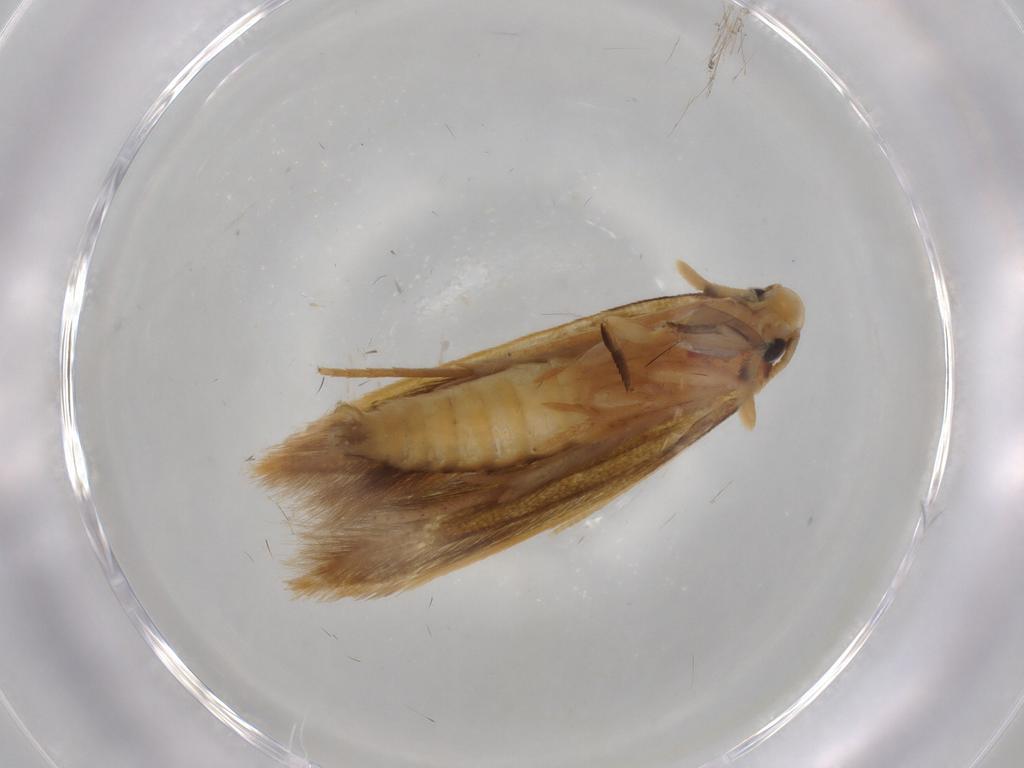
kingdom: Animalia
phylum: Arthropoda
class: Insecta
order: Lepidoptera
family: Tineidae
